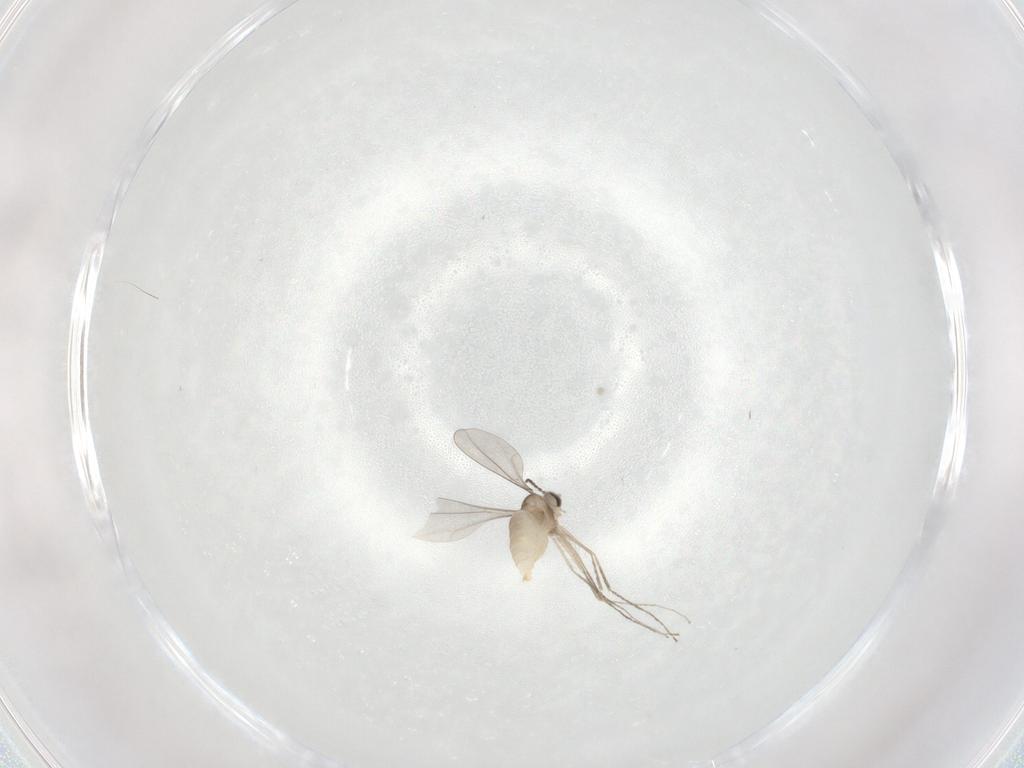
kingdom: Animalia
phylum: Arthropoda
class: Insecta
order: Diptera
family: Cecidomyiidae
